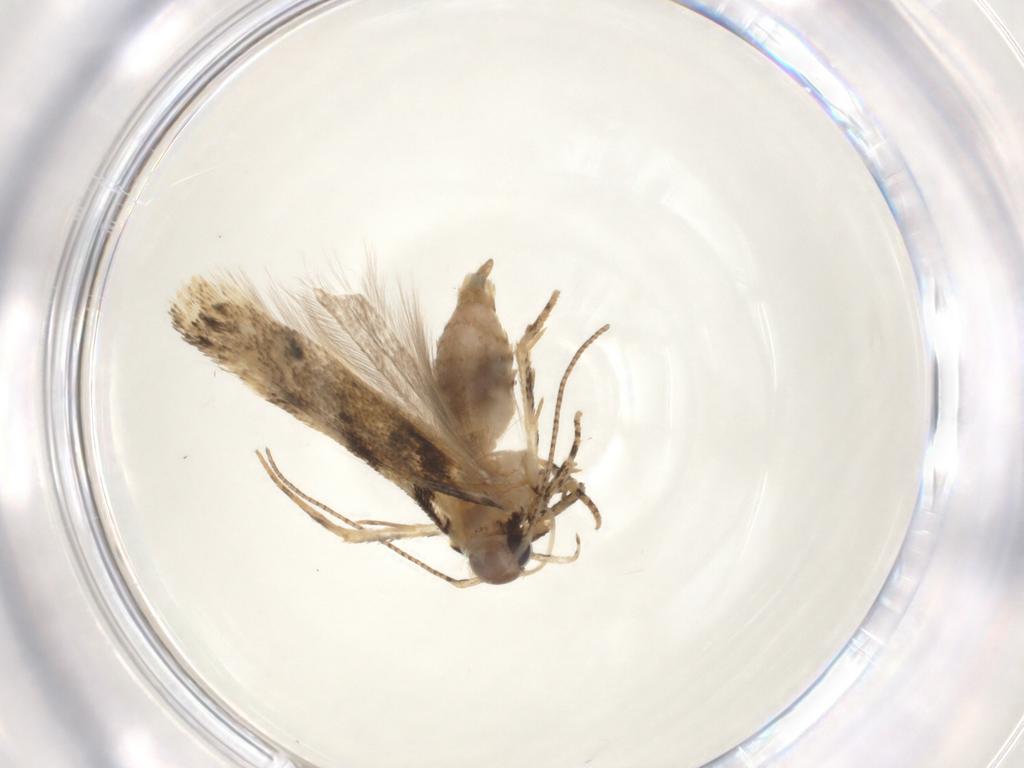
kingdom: Animalia
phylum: Arthropoda
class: Insecta
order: Lepidoptera
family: Gelechiidae
